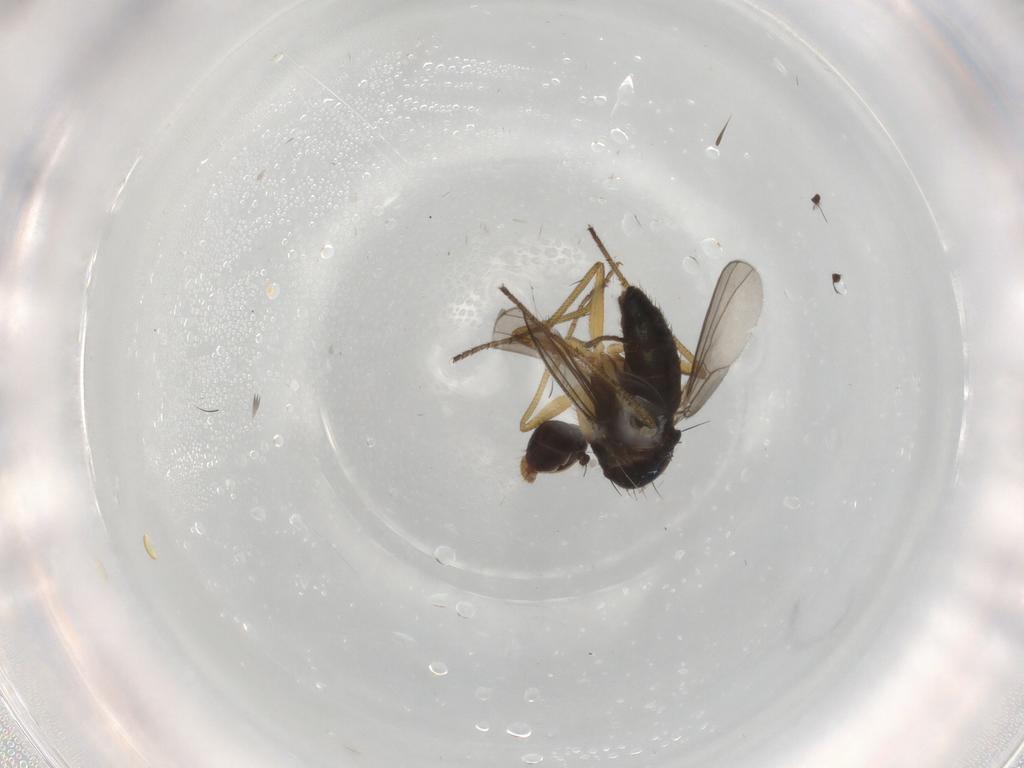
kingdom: Animalia
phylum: Arthropoda
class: Insecta
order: Diptera
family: Dolichopodidae
